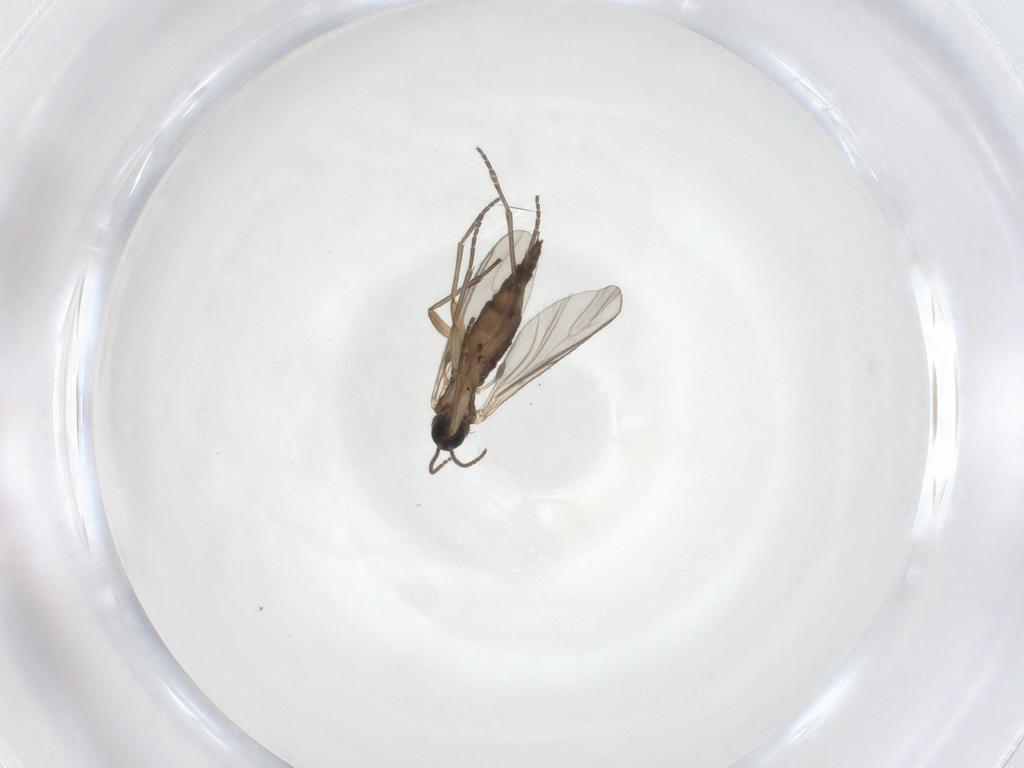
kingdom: Animalia
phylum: Arthropoda
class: Insecta
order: Diptera
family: Sciaridae
